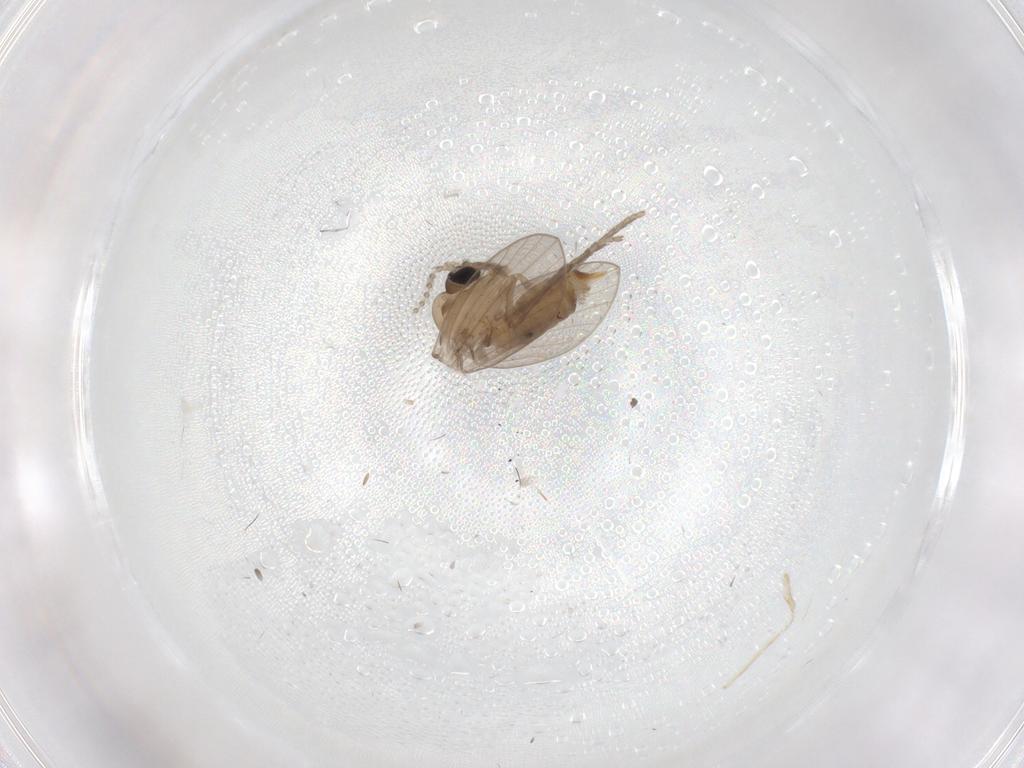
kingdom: Animalia
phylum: Arthropoda
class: Insecta
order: Diptera
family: Psychodidae
